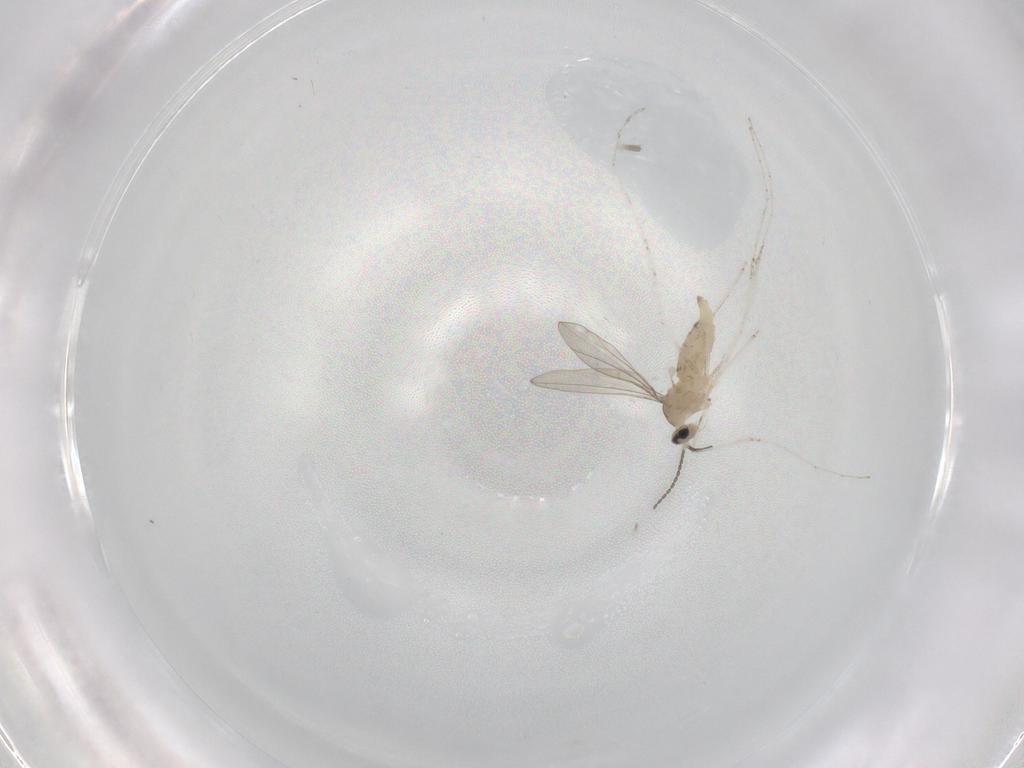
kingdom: Animalia
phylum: Arthropoda
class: Insecta
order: Diptera
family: Cecidomyiidae
